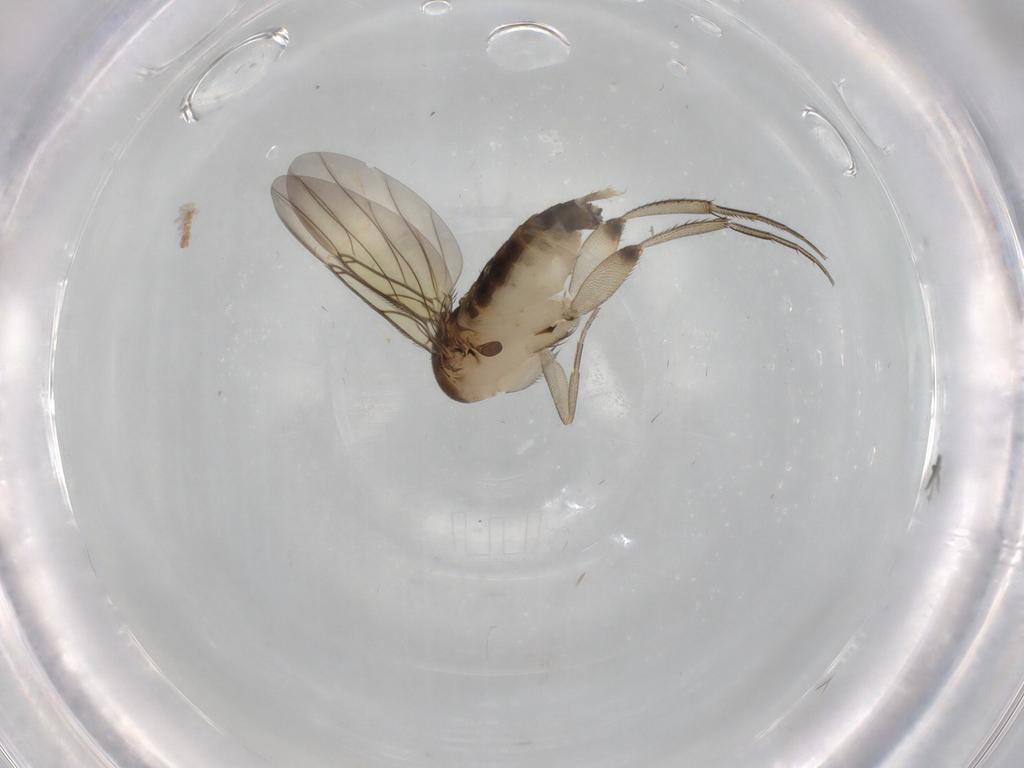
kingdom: Animalia
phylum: Arthropoda
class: Insecta
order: Diptera
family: Phoridae
